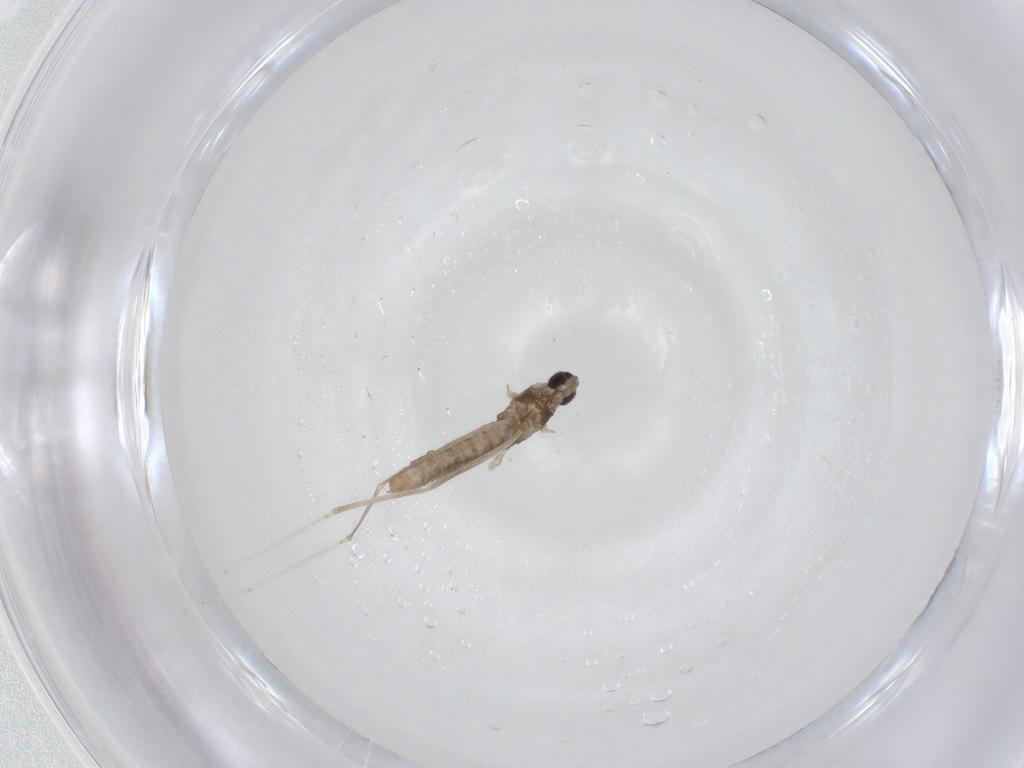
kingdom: Animalia
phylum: Arthropoda
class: Insecta
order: Diptera
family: Cecidomyiidae
